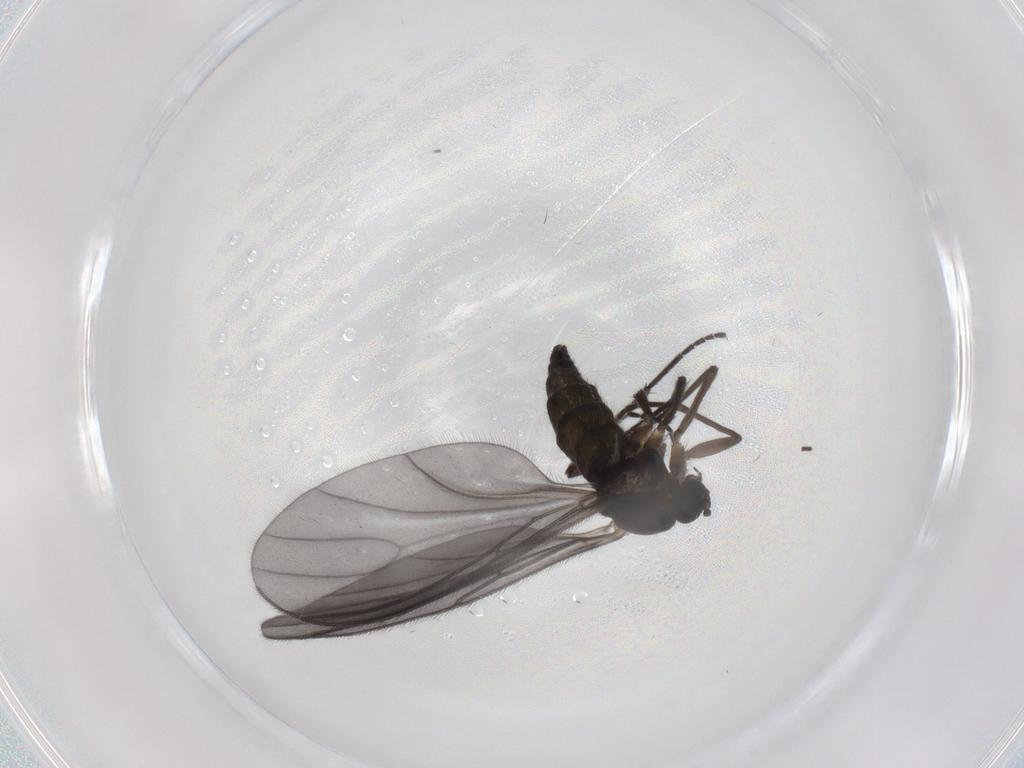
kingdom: Animalia
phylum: Arthropoda
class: Insecta
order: Diptera
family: Sciaridae
